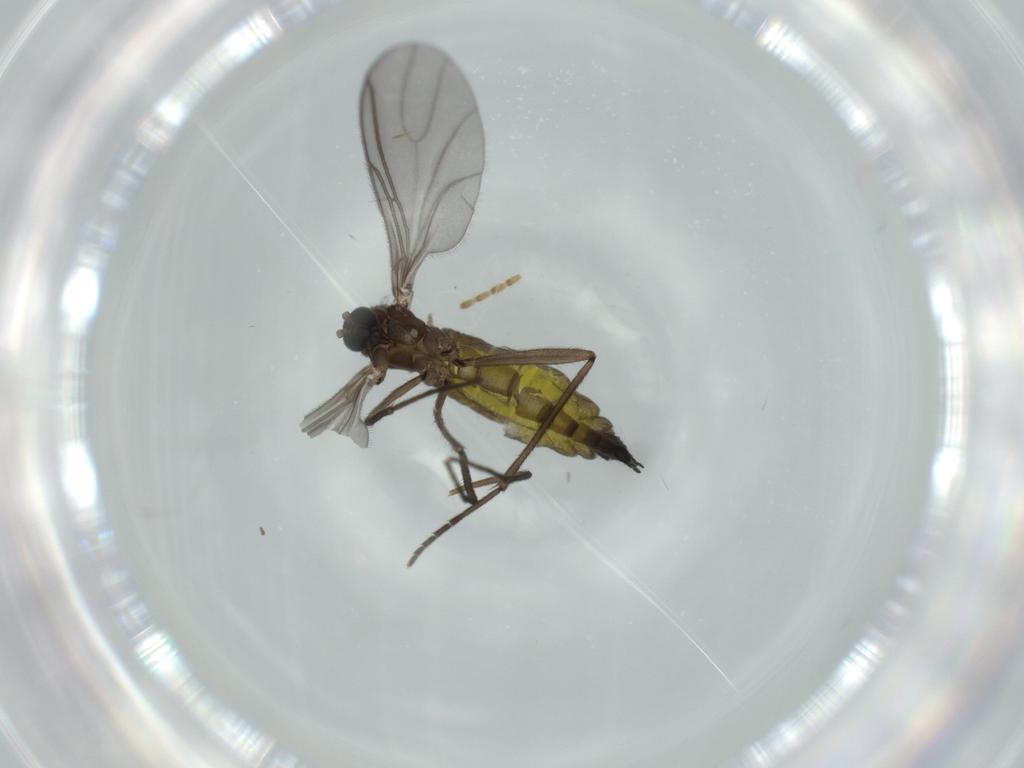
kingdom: Animalia
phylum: Arthropoda
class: Insecta
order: Diptera
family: Sciaridae
